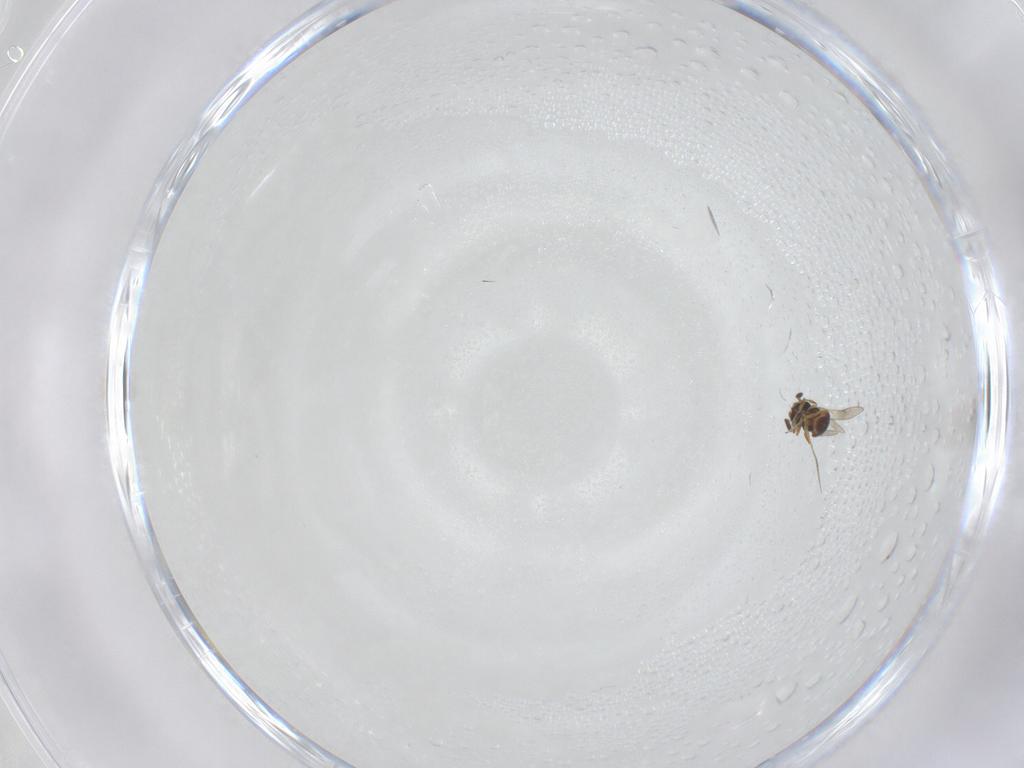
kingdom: Animalia
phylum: Arthropoda
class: Insecta
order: Hymenoptera
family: Scelionidae
